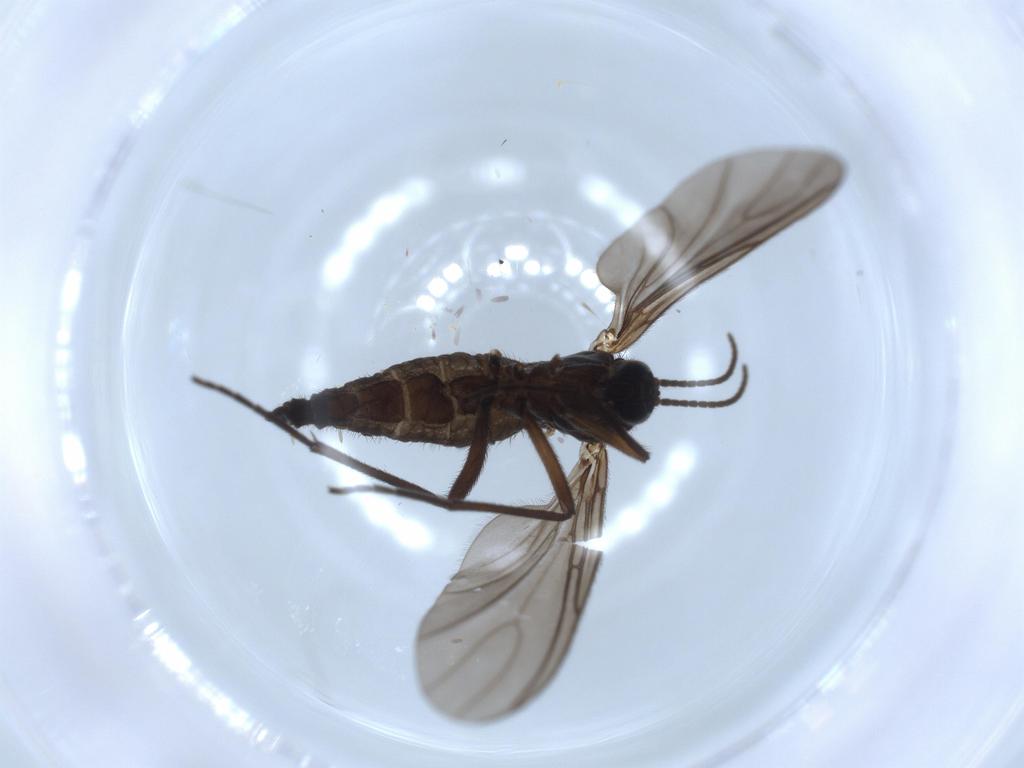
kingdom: Animalia
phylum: Arthropoda
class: Insecta
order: Diptera
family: Sciaridae
